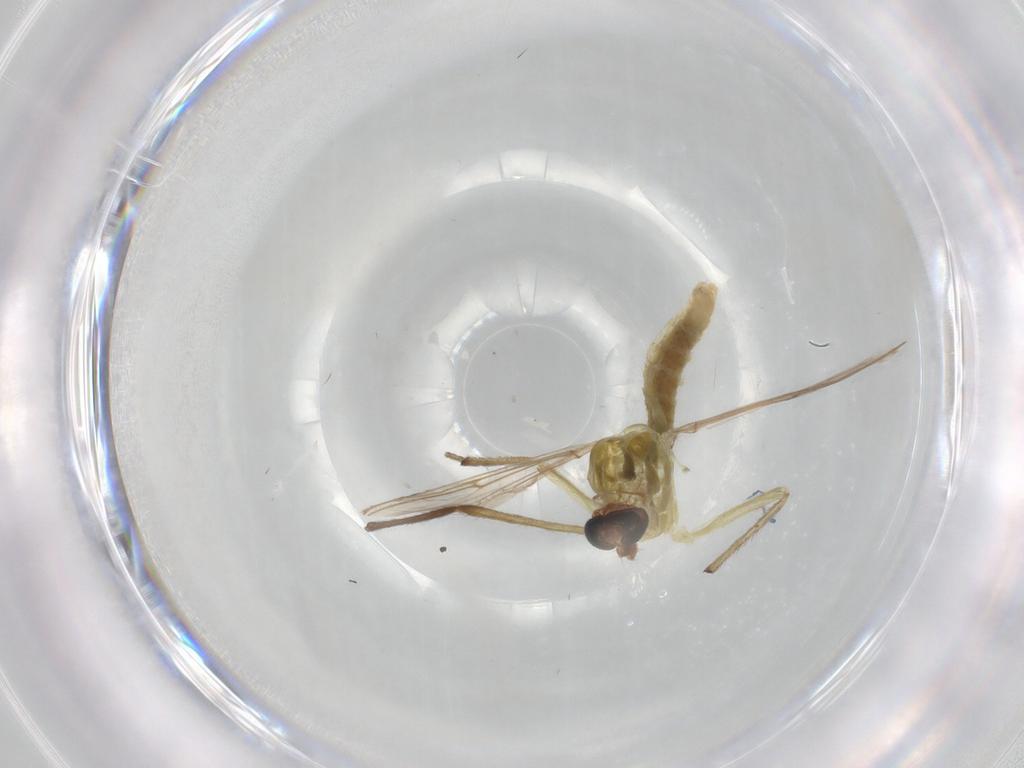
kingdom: Animalia
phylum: Arthropoda
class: Insecta
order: Diptera
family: Chironomidae
